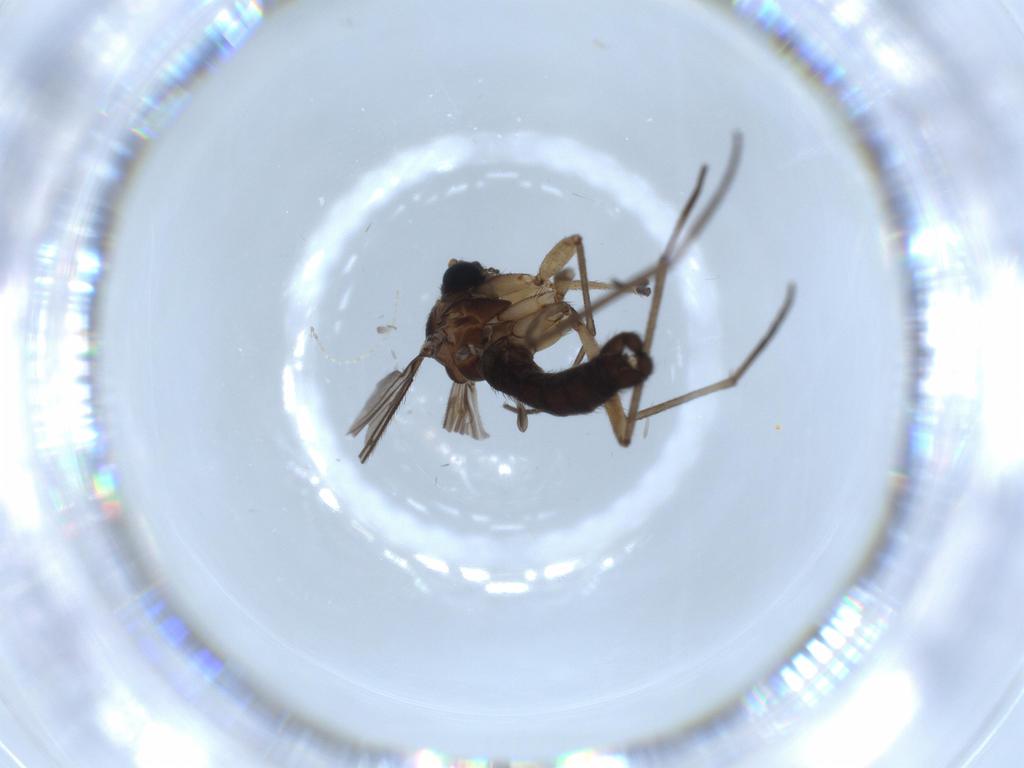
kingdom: Animalia
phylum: Arthropoda
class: Insecta
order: Diptera
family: Sciaridae
